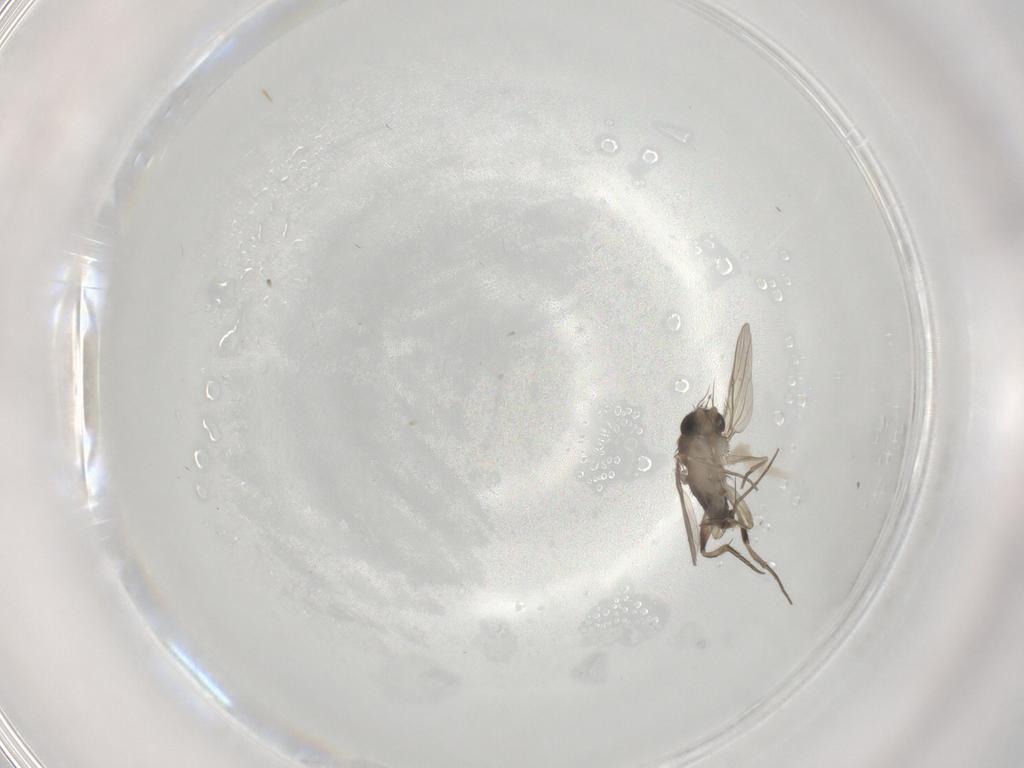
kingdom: Animalia
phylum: Arthropoda
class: Insecta
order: Diptera
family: Phoridae
